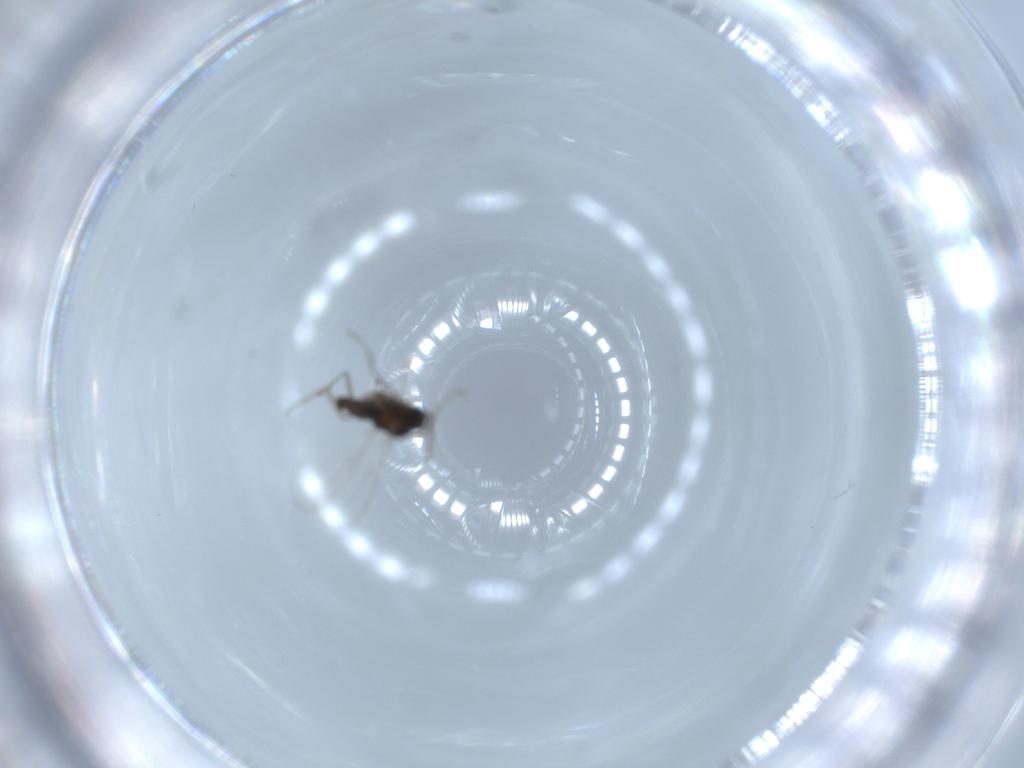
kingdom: Animalia
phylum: Arthropoda
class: Insecta
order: Diptera
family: Cecidomyiidae
